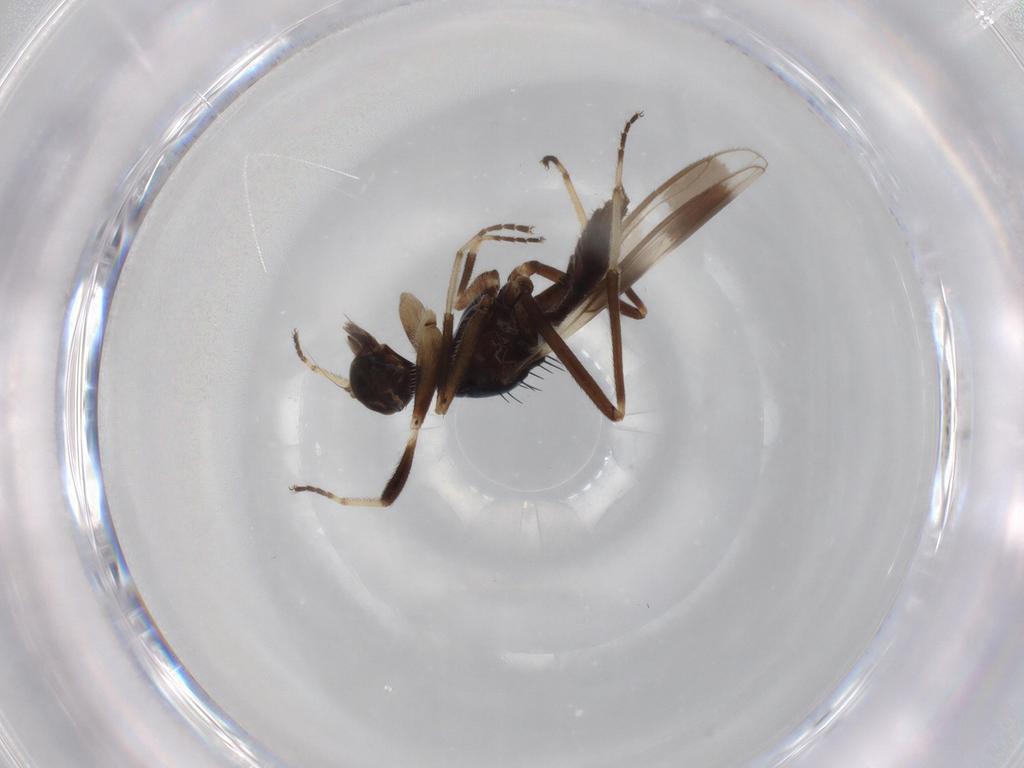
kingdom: Animalia
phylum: Arthropoda
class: Insecta
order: Diptera
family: Hybotidae
